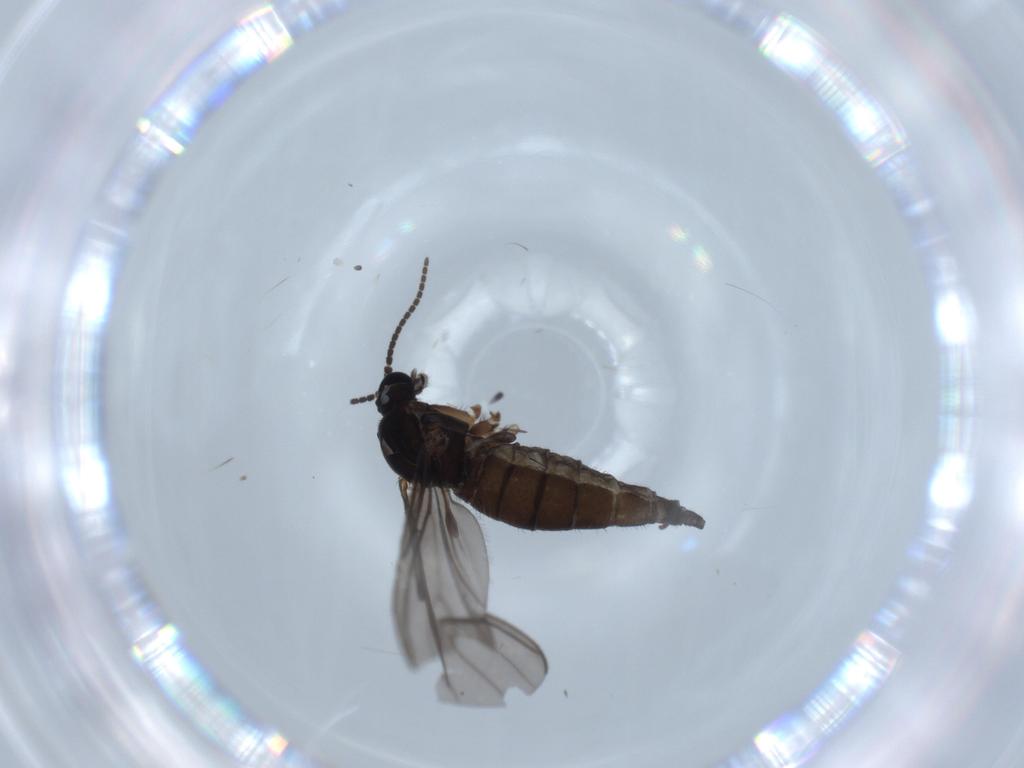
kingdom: Animalia
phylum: Arthropoda
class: Insecta
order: Diptera
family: Sciaridae
